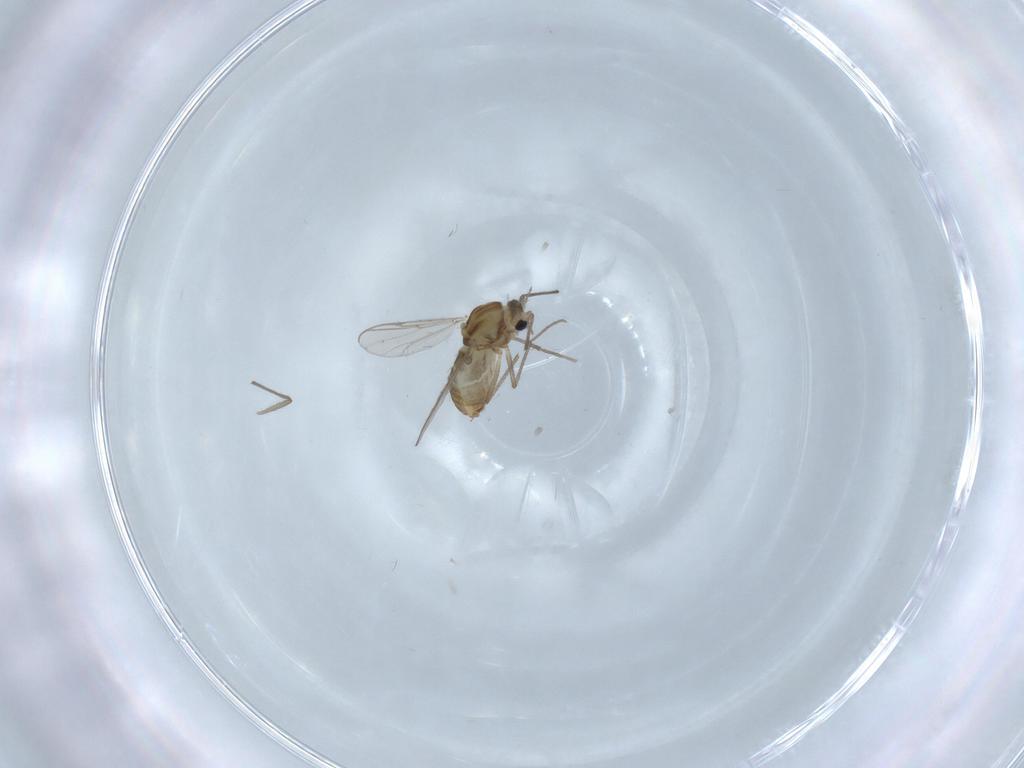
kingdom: Animalia
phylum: Arthropoda
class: Insecta
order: Diptera
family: Chironomidae
